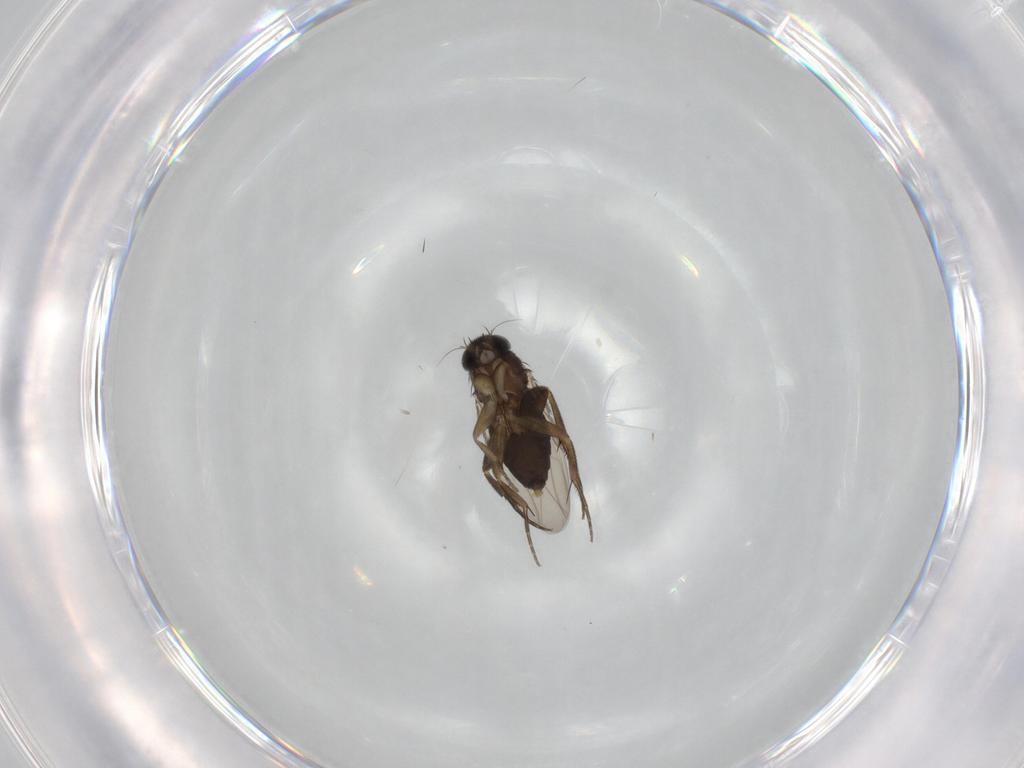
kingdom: Animalia
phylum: Arthropoda
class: Insecta
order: Diptera
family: Phoridae
